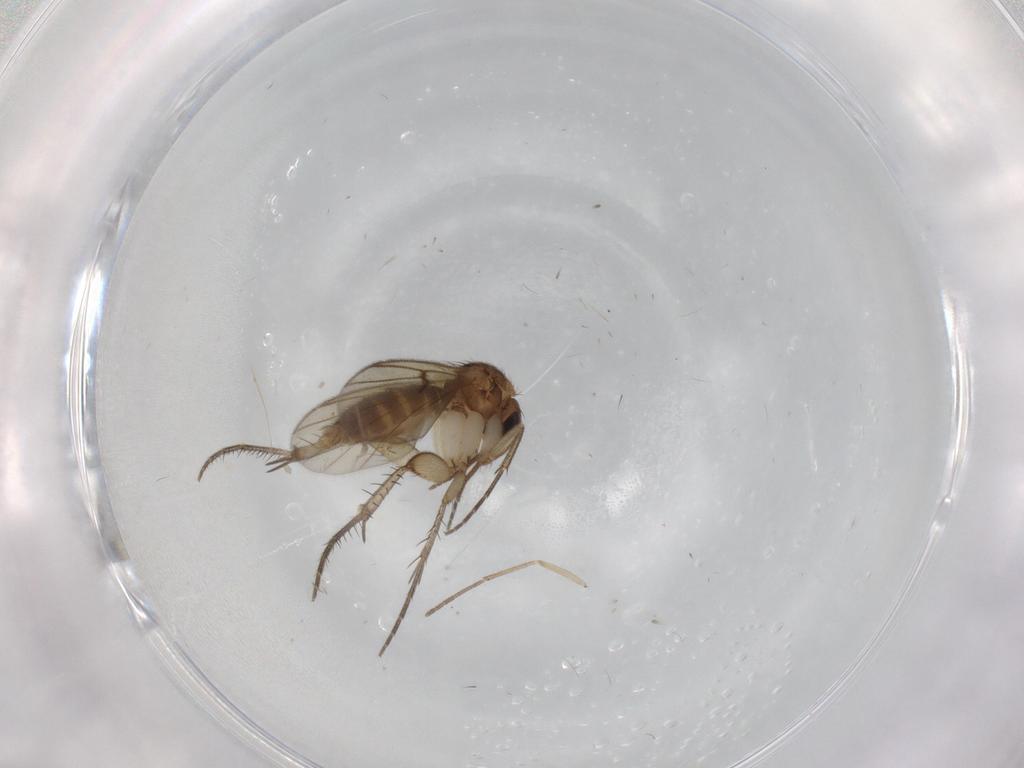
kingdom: Animalia
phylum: Arthropoda
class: Insecta
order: Diptera
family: Mycetophilidae
